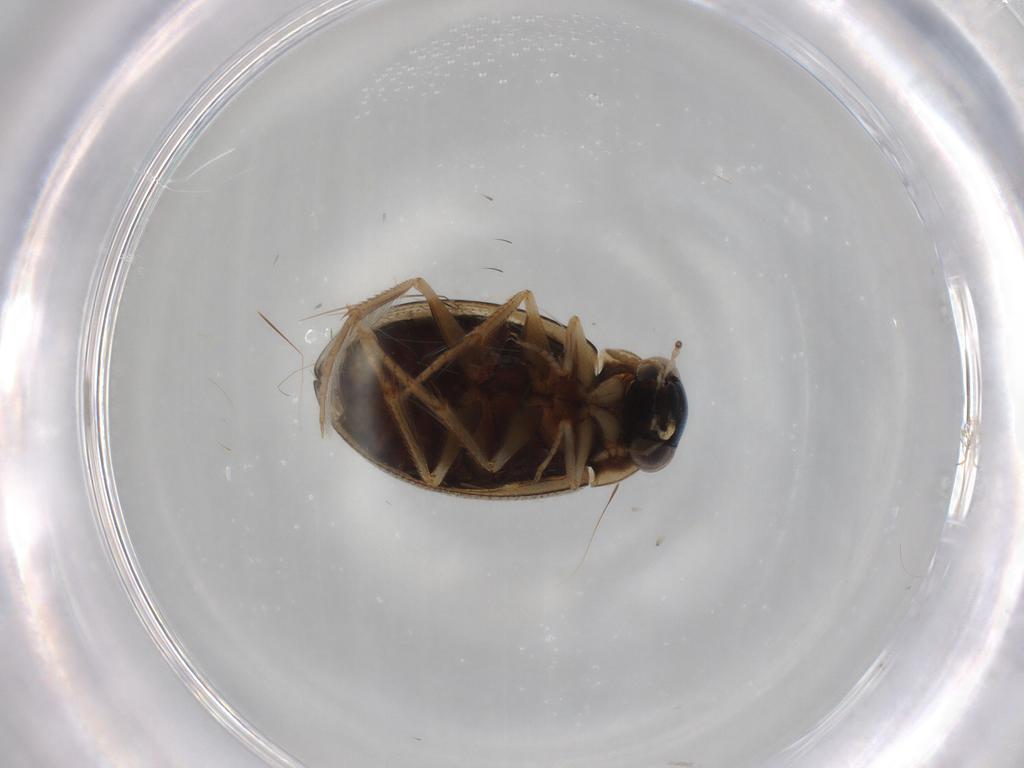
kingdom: Animalia
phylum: Arthropoda
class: Insecta
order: Coleoptera
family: Hydrophilidae
